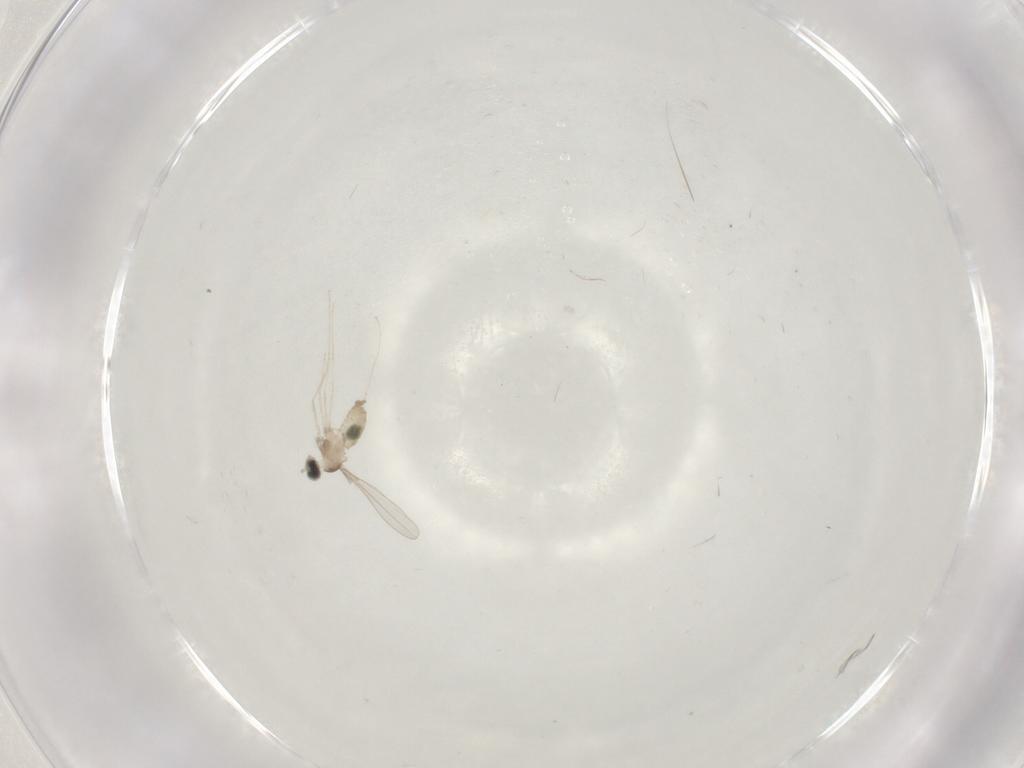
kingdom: Animalia
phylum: Arthropoda
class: Insecta
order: Diptera
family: Cecidomyiidae
